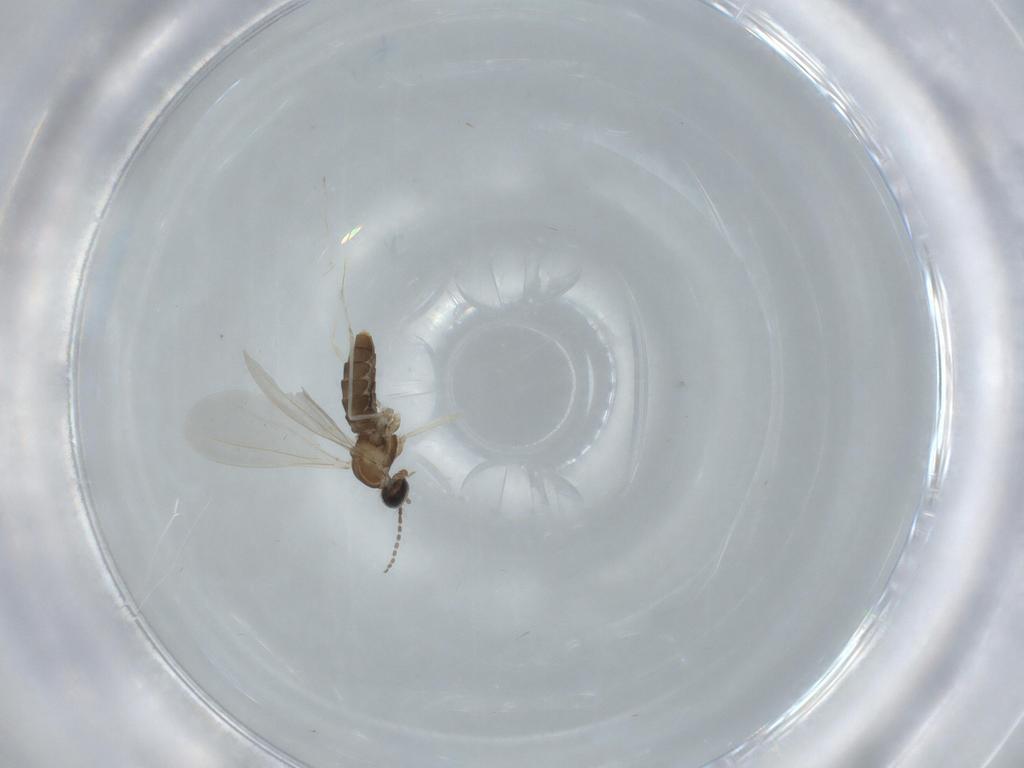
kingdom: Animalia
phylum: Arthropoda
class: Insecta
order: Diptera
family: Cecidomyiidae
